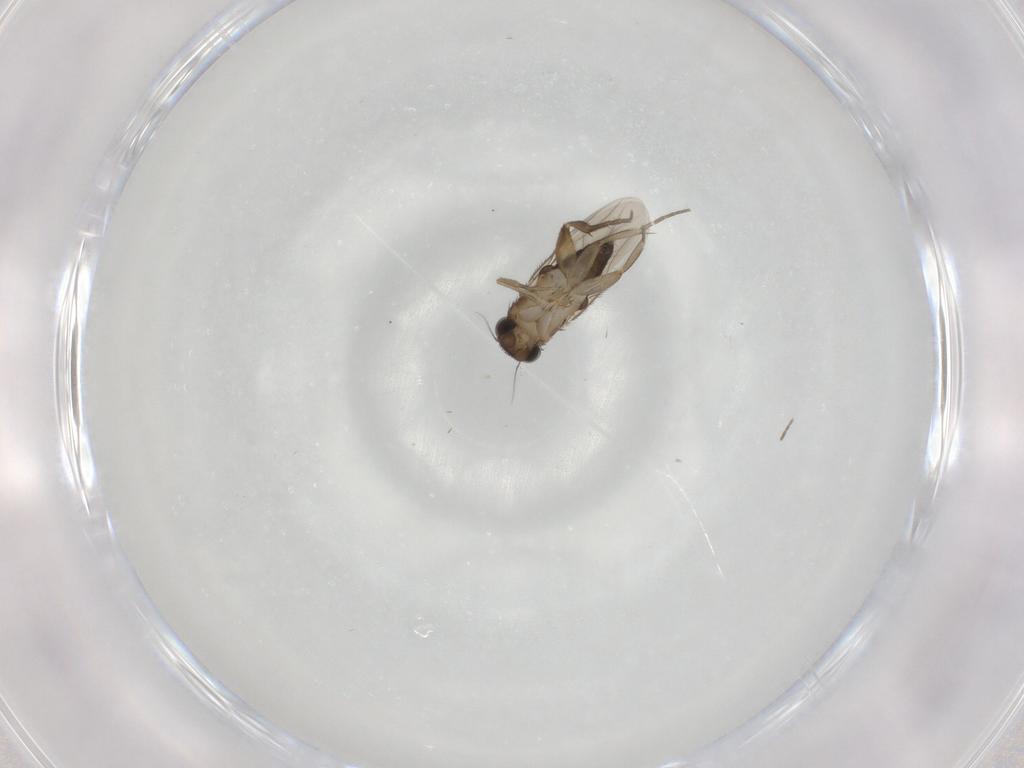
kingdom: Animalia
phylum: Arthropoda
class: Insecta
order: Diptera
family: Phoridae
